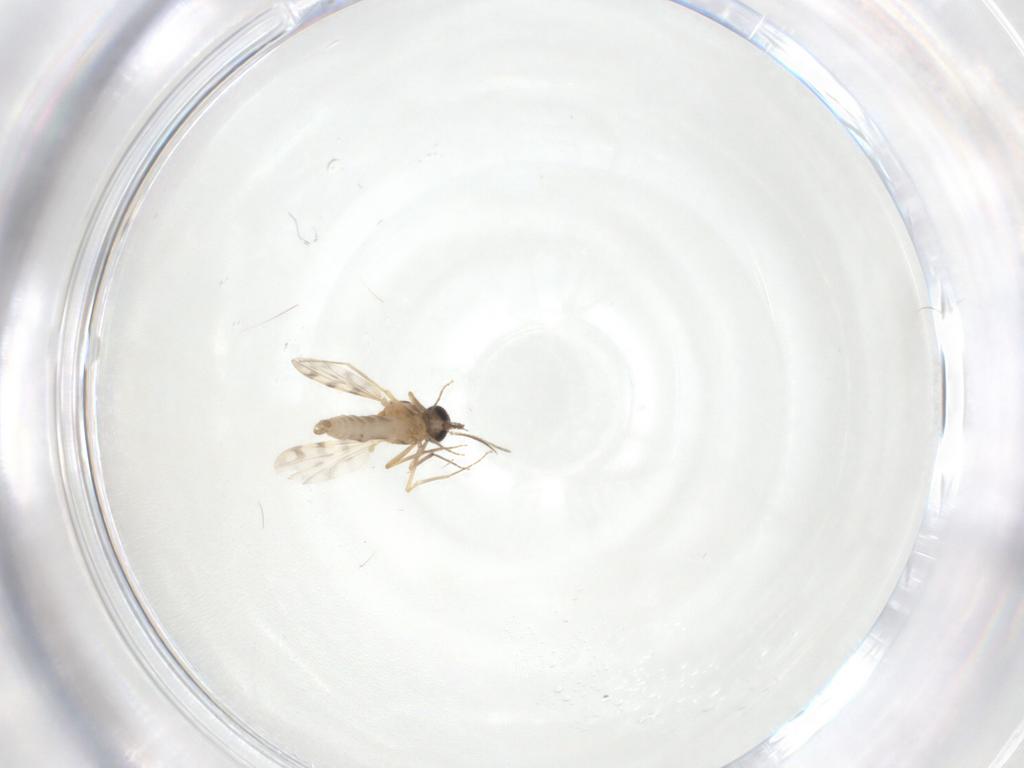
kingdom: Animalia
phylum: Arthropoda
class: Insecta
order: Diptera
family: Ceratopogonidae
